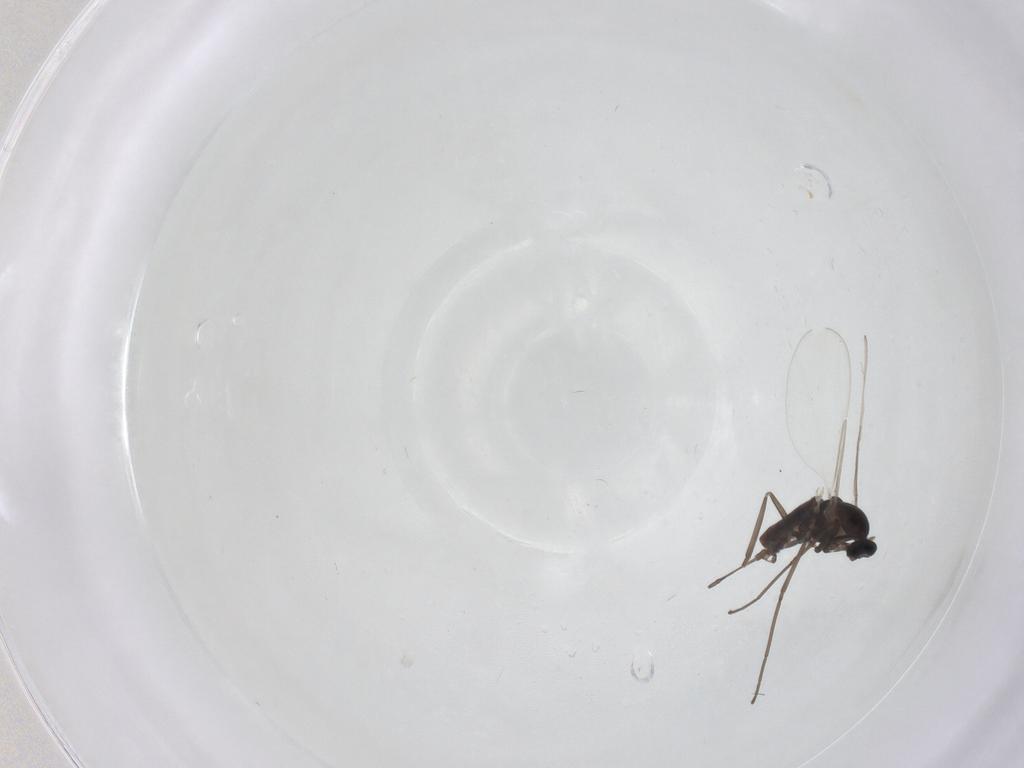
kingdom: Animalia
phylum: Arthropoda
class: Insecta
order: Diptera
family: Cecidomyiidae
